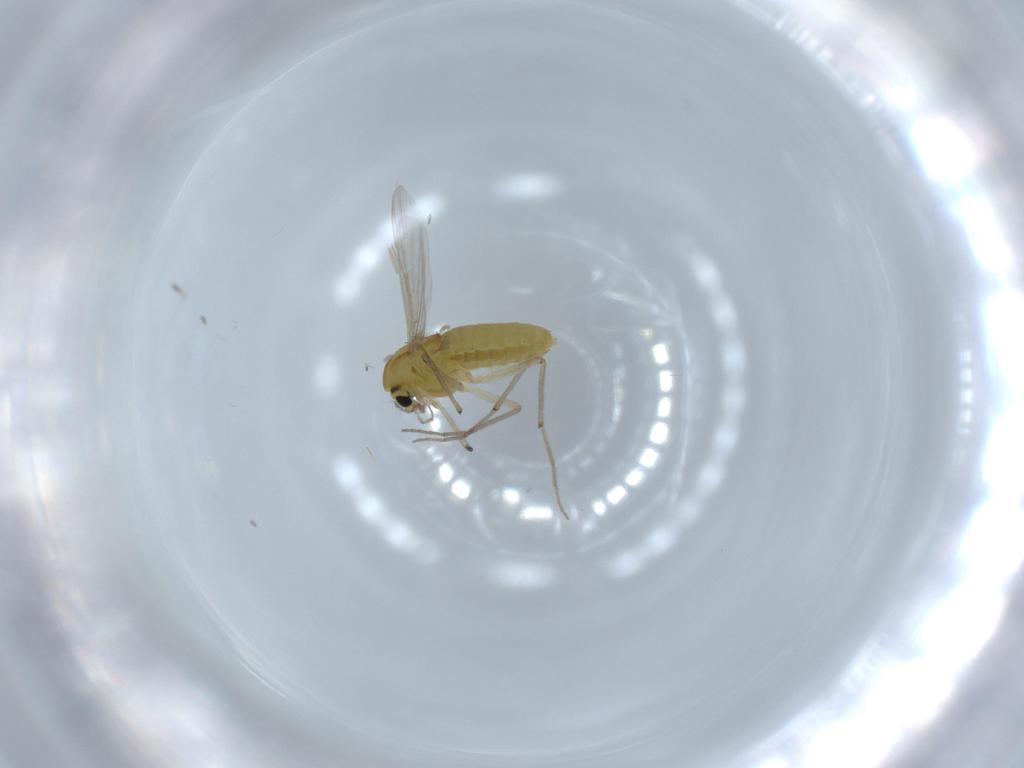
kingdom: Animalia
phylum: Arthropoda
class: Insecta
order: Diptera
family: Chironomidae
